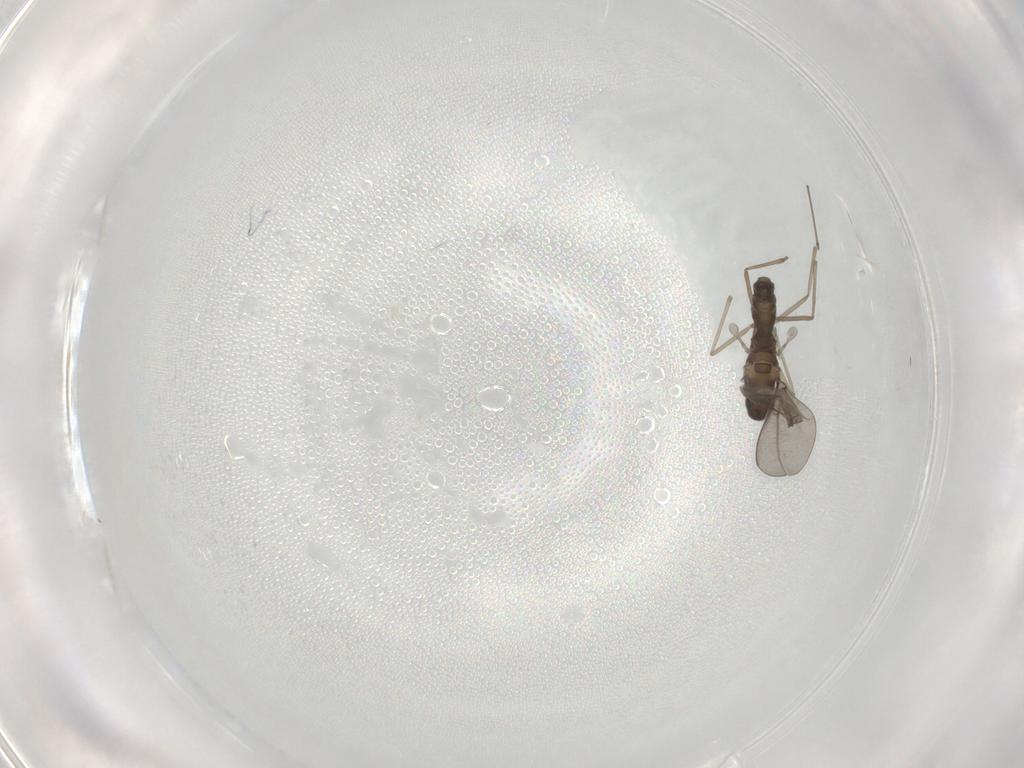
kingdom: Animalia
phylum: Arthropoda
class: Insecta
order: Diptera
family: Cecidomyiidae
